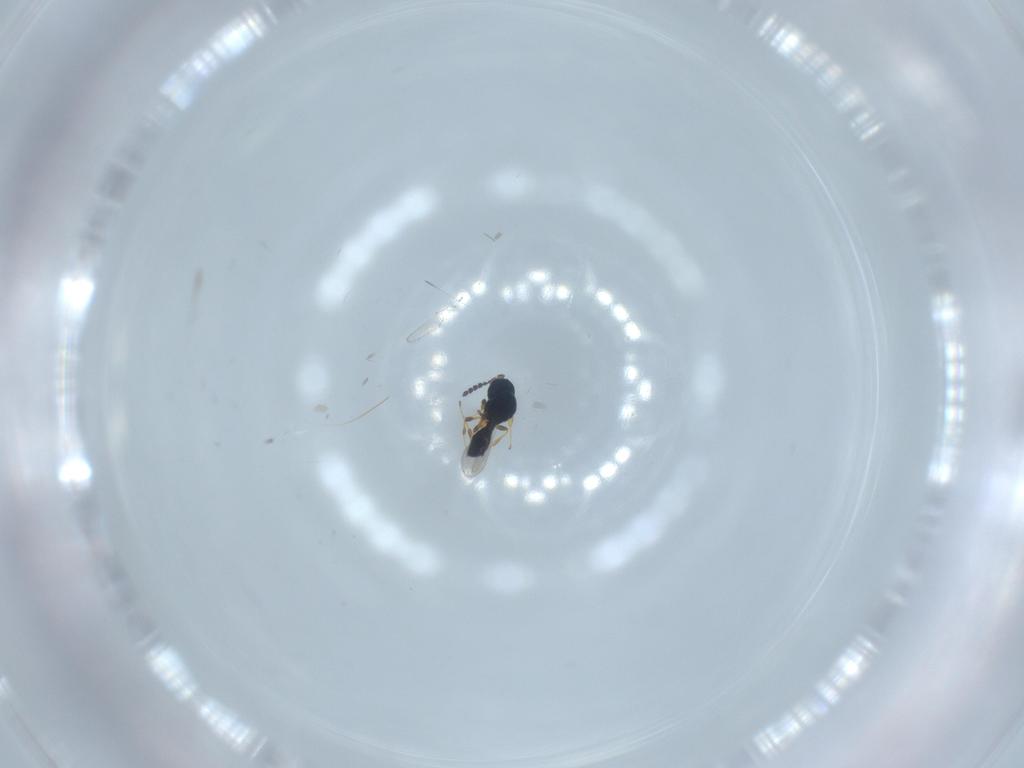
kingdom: Animalia
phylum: Arthropoda
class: Insecta
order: Hymenoptera
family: Platygastridae
